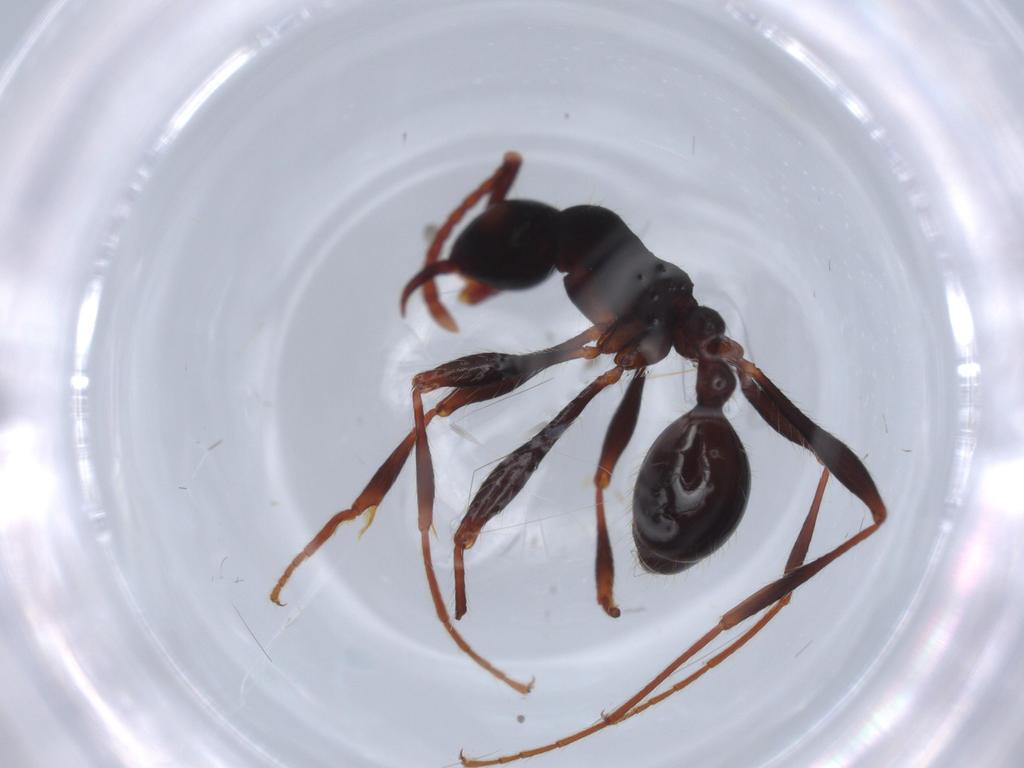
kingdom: Animalia
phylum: Arthropoda
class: Insecta
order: Hymenoptera
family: Formicidae
